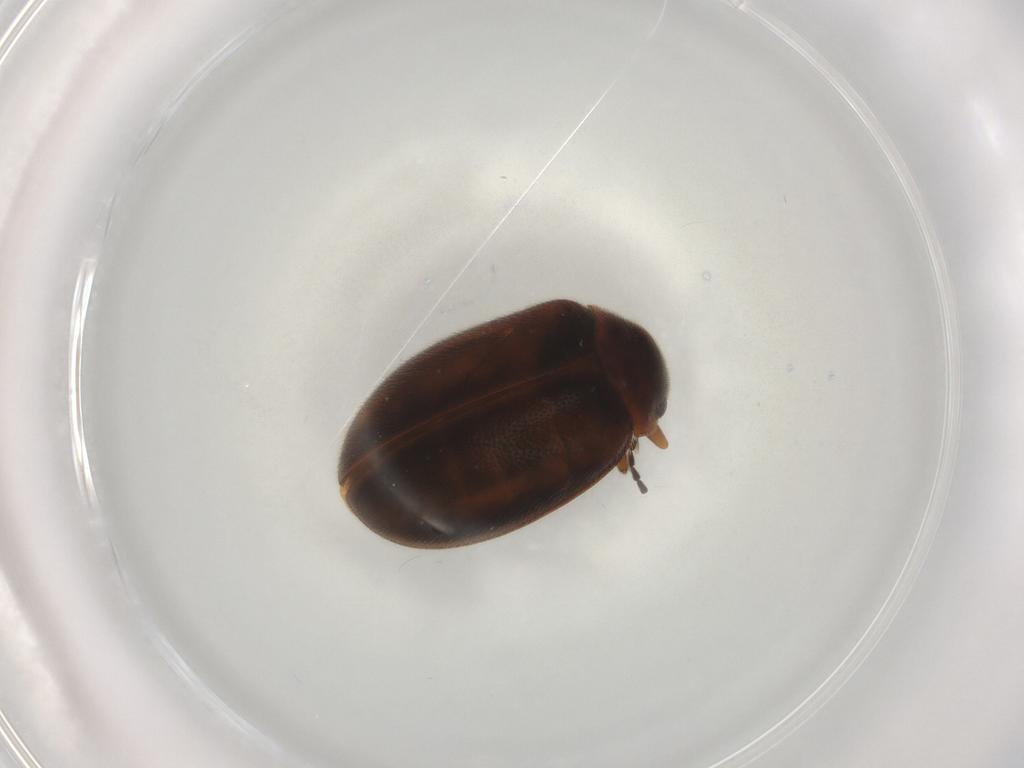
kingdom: Animalia
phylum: Arthropoda
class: Insecta
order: Coleoptera
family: Scirtidae
